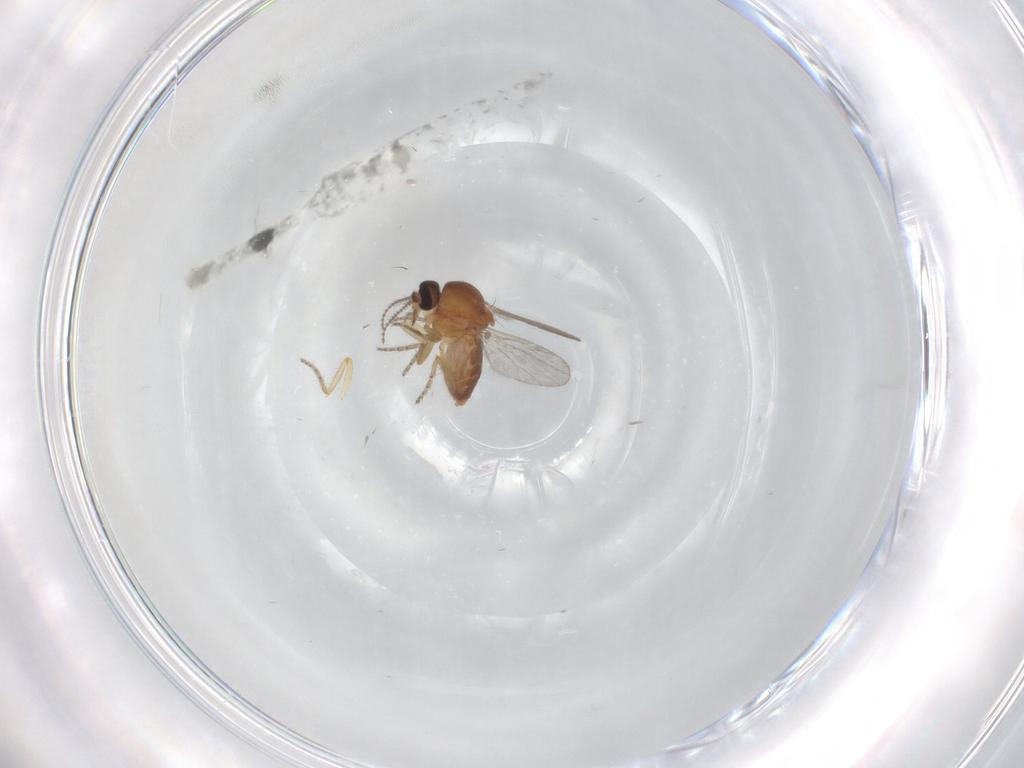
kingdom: Animalia
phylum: Arthropoda
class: Insecta
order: Diptera
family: Ceratopogonidae
